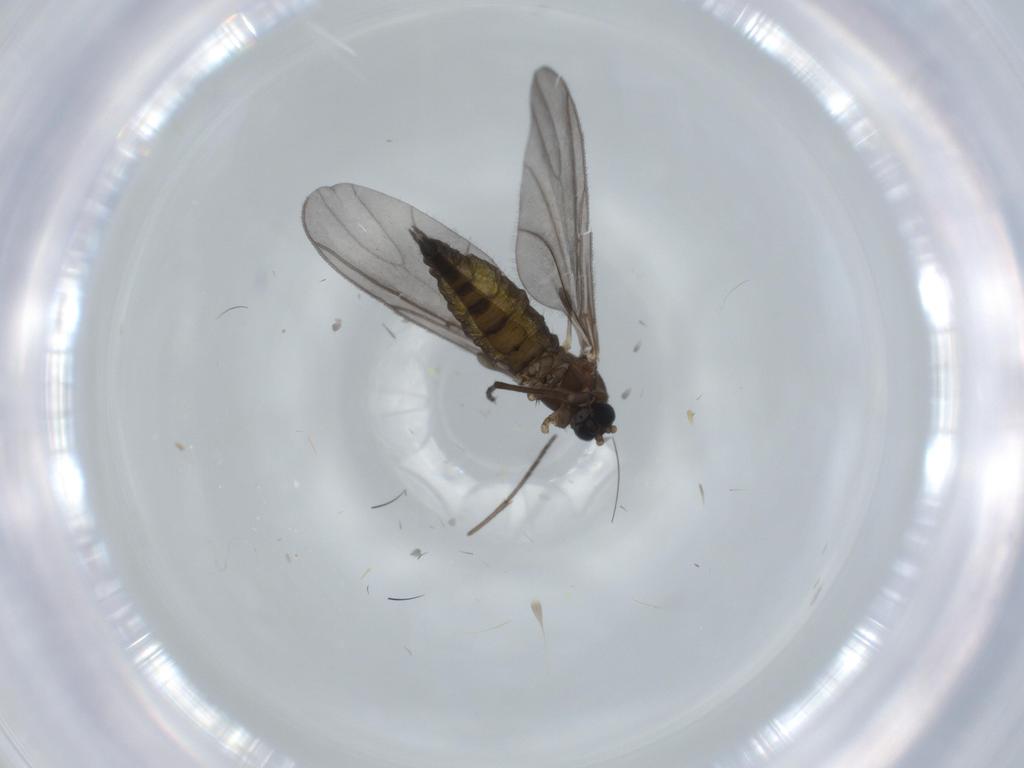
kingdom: Animalia
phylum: Arthropoda
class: Insecta
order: Diptera
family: Sciaridae
